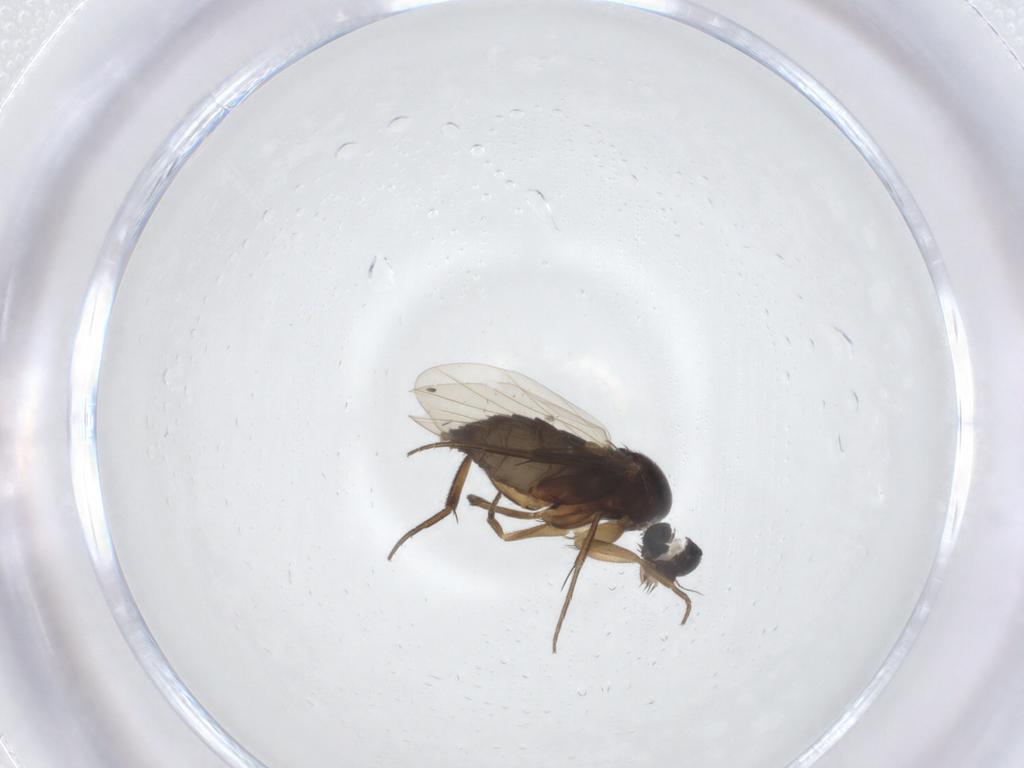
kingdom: Animalia
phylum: Arthropoda
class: Insecta
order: Diptera
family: Phoridae
